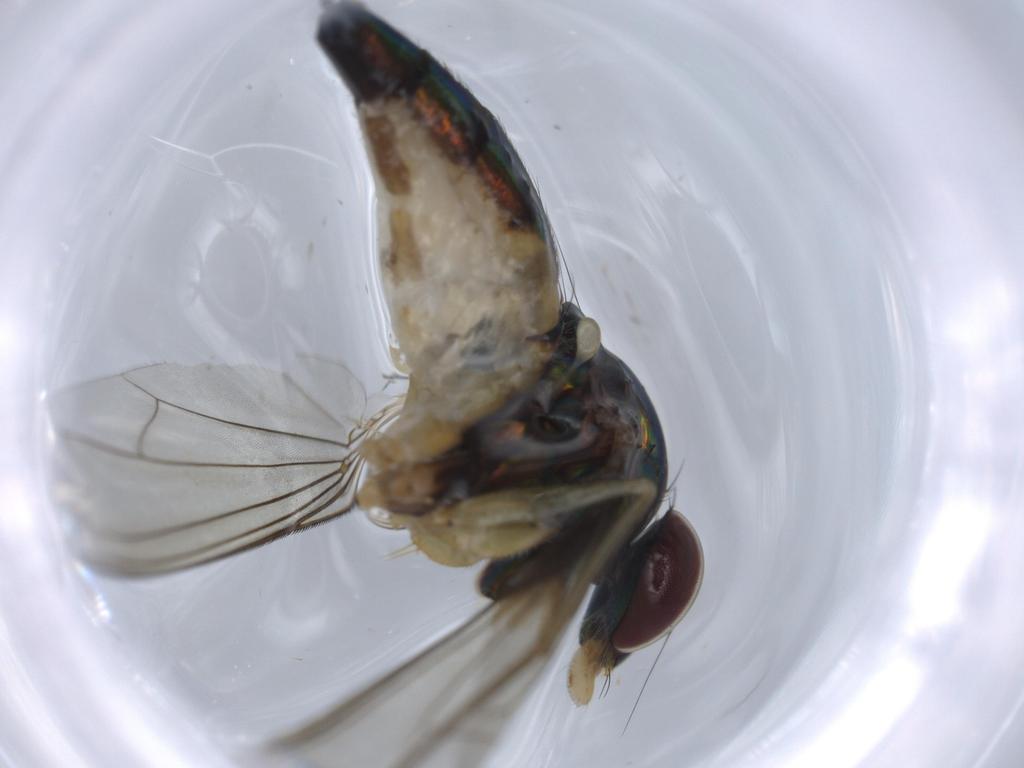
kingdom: Animalia
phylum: Arthropoda
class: Insecta
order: Diptera
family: Dolichopodidae
